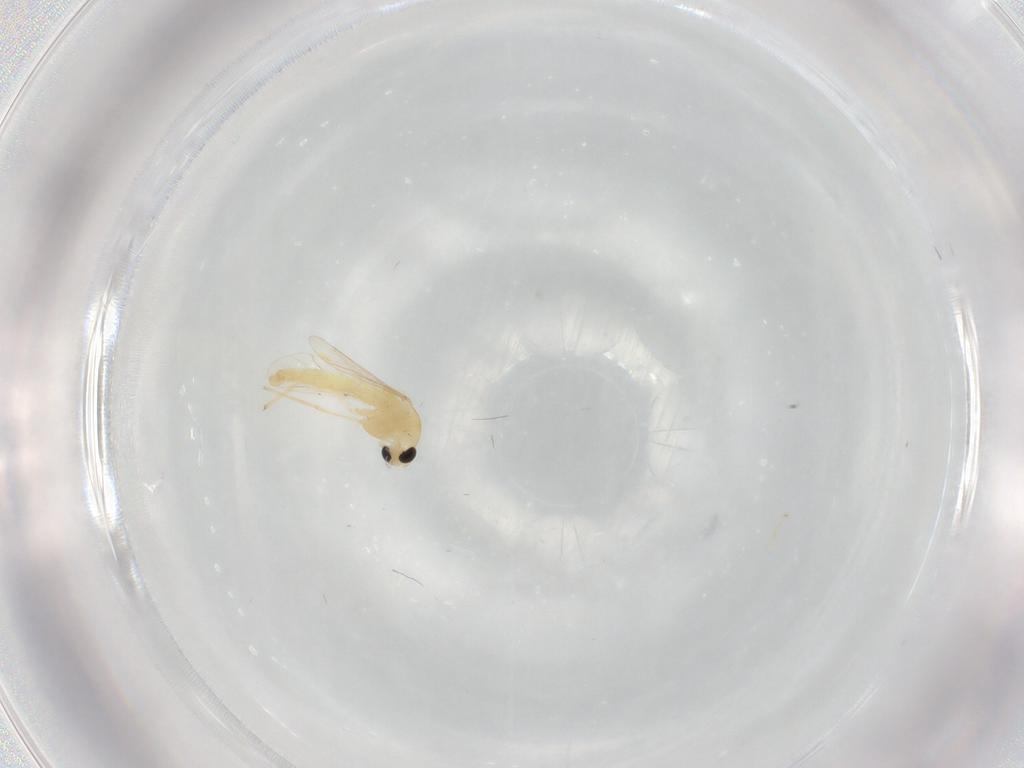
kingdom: Animalia
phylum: Arthropoda
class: Insecta
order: Diptera
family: Chironomidae
